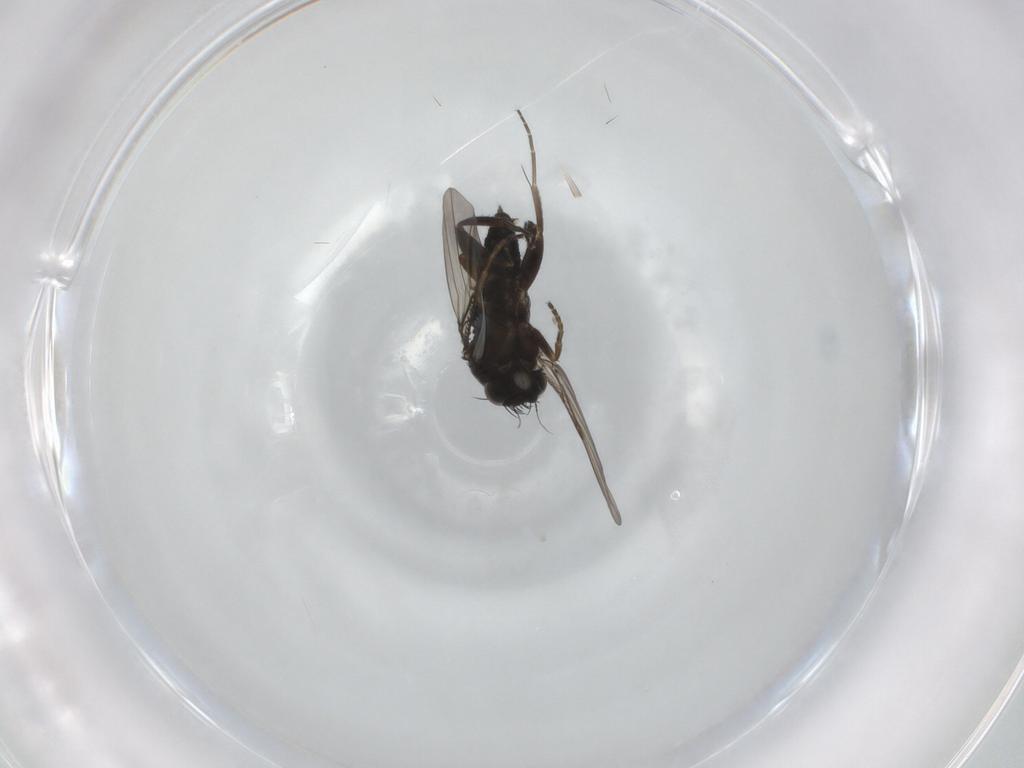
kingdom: Animalia
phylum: Arthropoda
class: Insecta
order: Diptera
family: Phoridae
